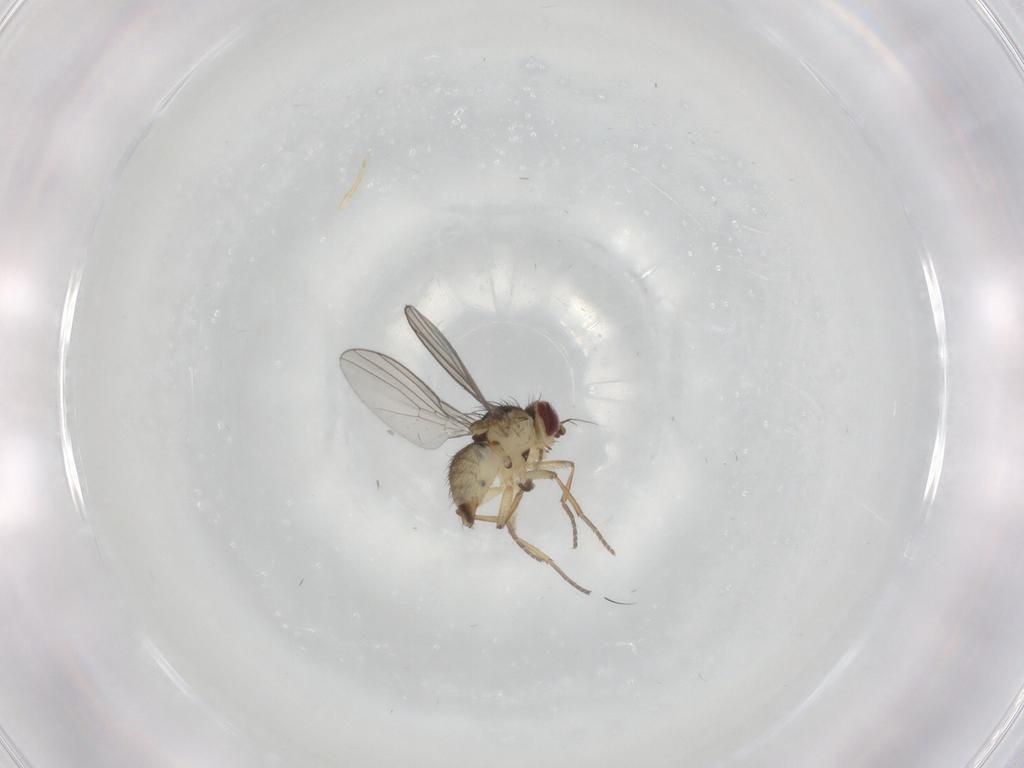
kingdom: Animalia
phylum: Arthropoda
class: Insecta
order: Diptera
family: Agromyzidae
